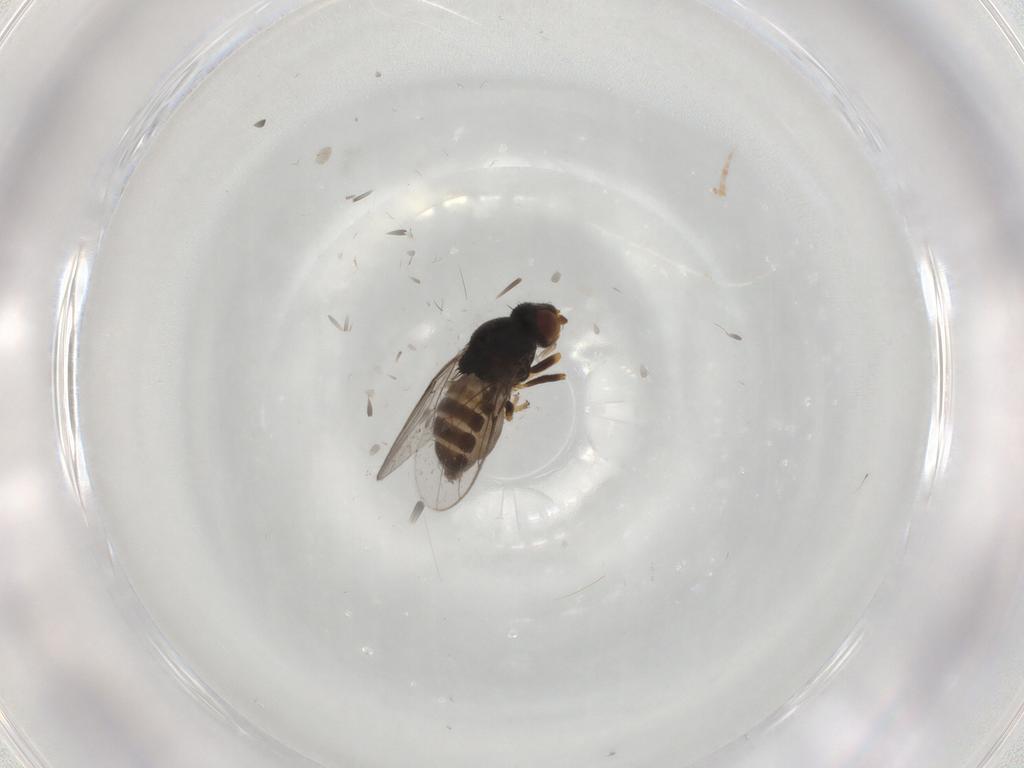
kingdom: Animalia
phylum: Arthropoda
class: Insecta
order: Diptera
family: Chloropidae
